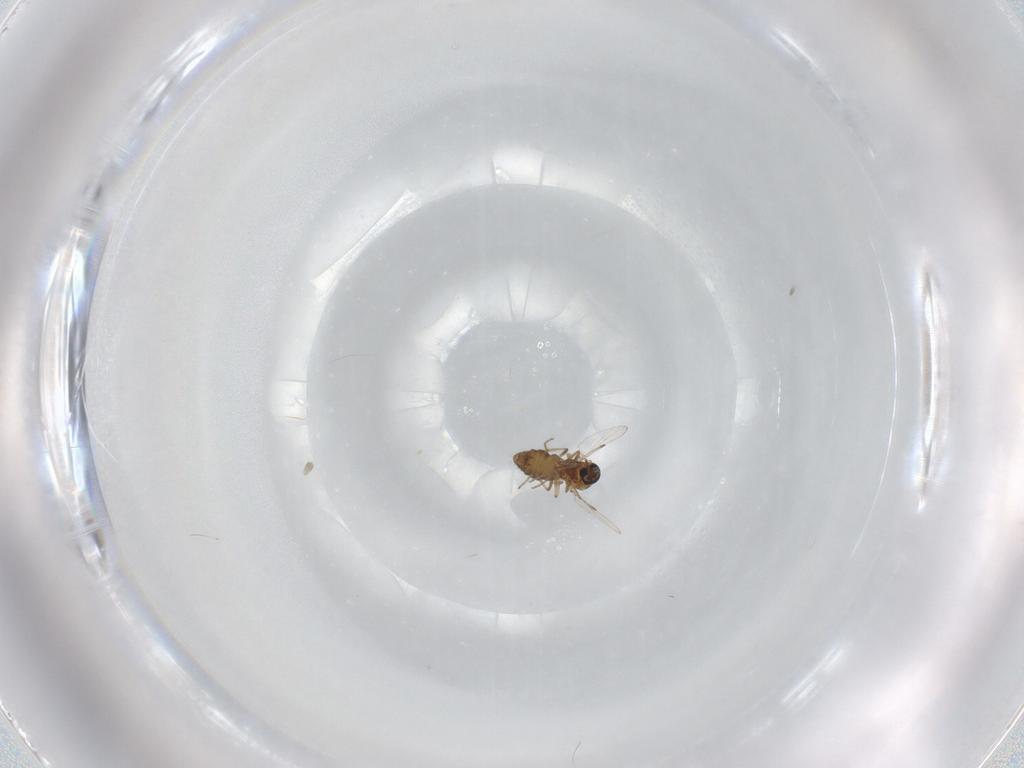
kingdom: Animalia
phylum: Arthropoda
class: Insecta
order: Diptera
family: Ceratopogonidae
